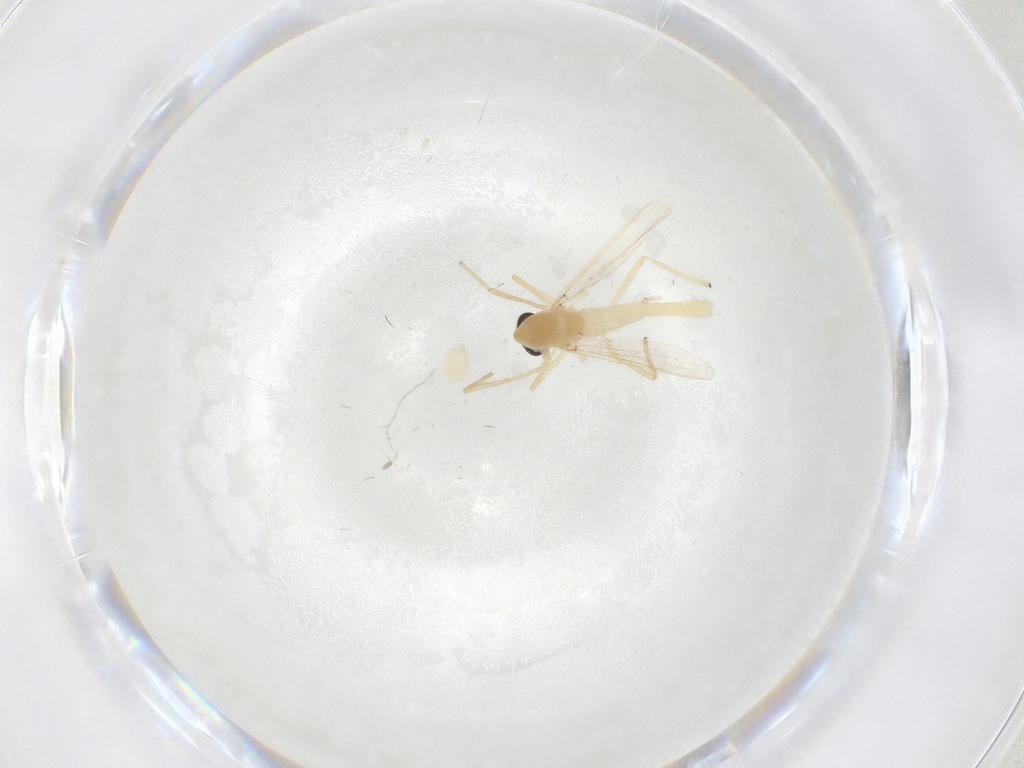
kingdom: Animalia
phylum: Arthropoda
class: Insecta
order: Diptera
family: Chironomidae
